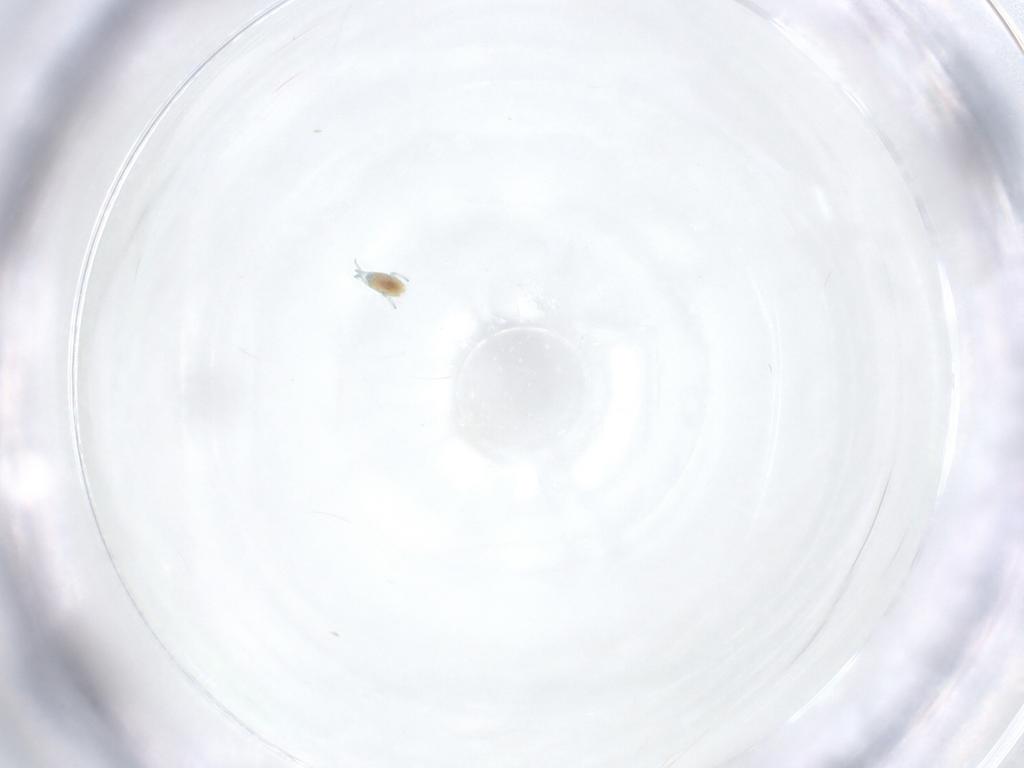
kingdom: Animalia
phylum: Arthropoda
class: Arachnida
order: Trombidiformes
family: Limnesiidae
